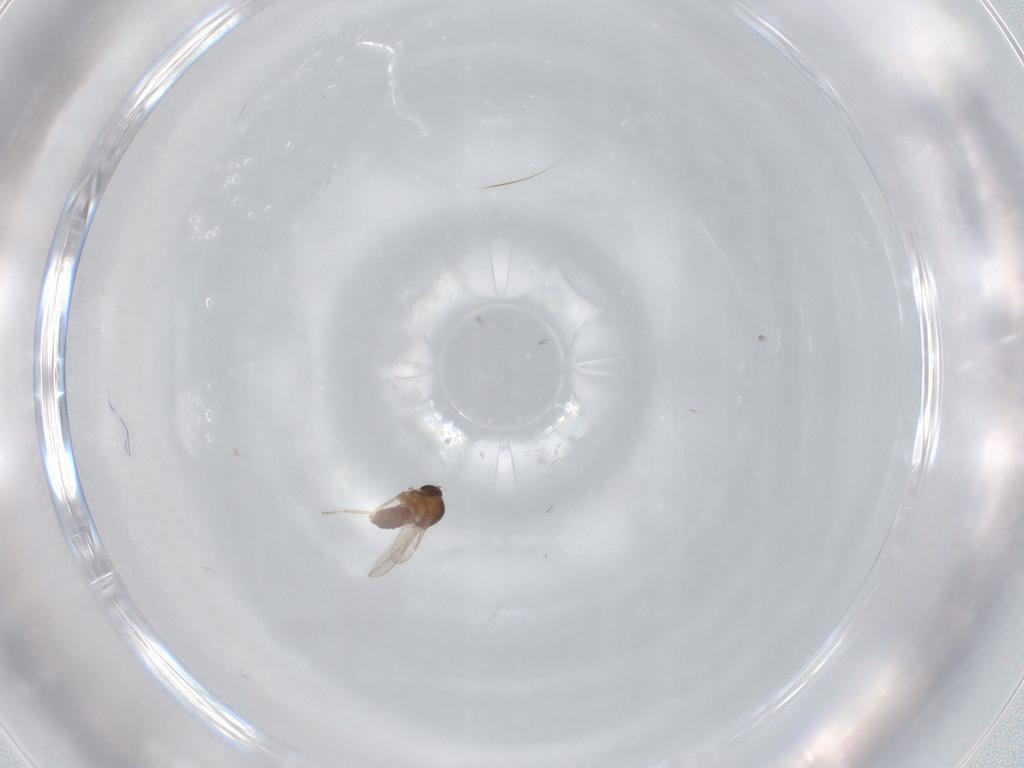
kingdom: Animalia
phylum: Arthropoda
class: Insecta
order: Diptera
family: Ceratopogonidae
